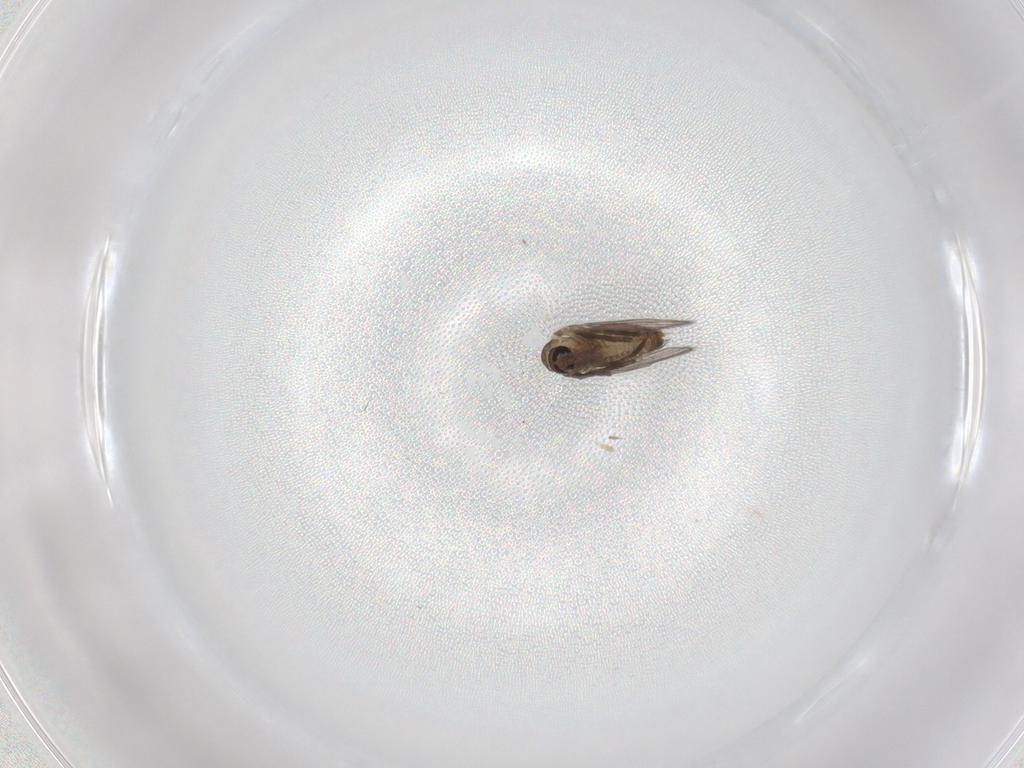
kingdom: Animalia
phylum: Arthropoda
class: Insecta
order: Diptera
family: Psychodidae
